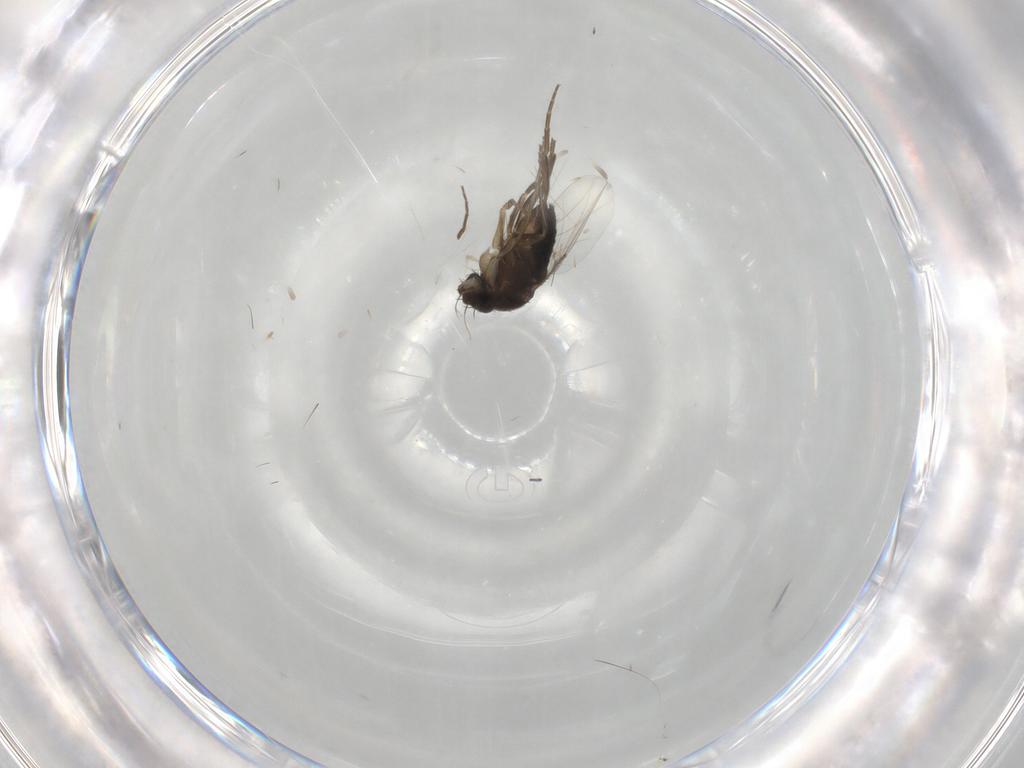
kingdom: Animalia
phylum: Arthropoda
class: Insecta
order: Diptera
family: Phoridae
